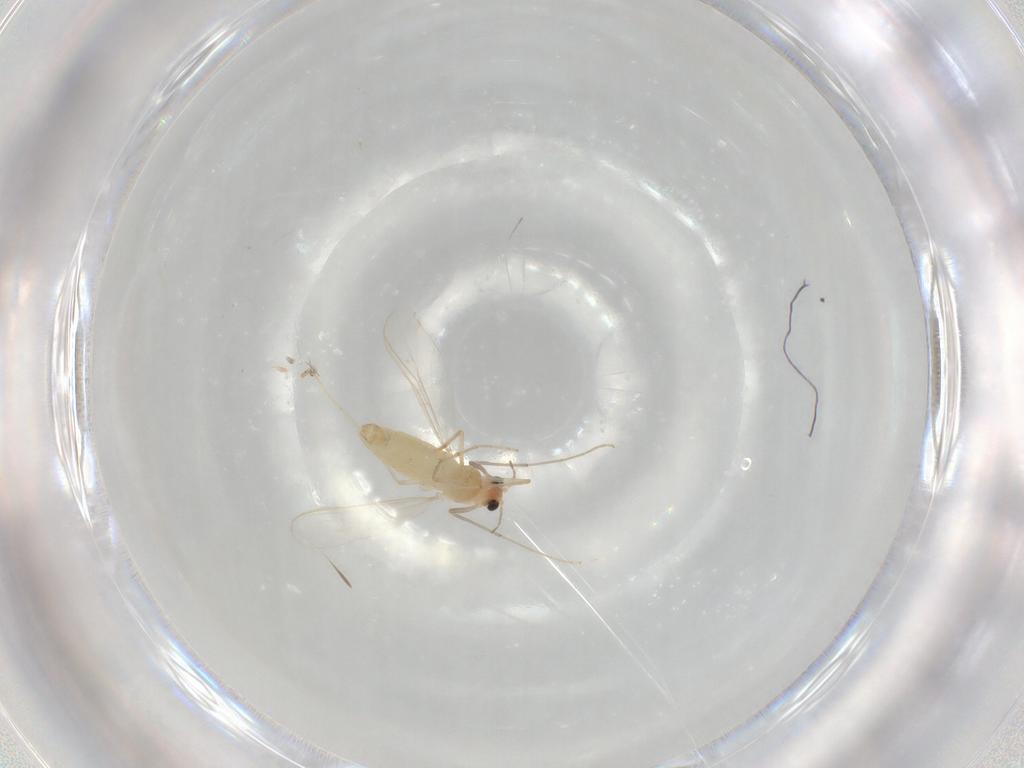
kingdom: Animalia
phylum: Arthropoda
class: Insecta
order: Diptera
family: Chironomidae
